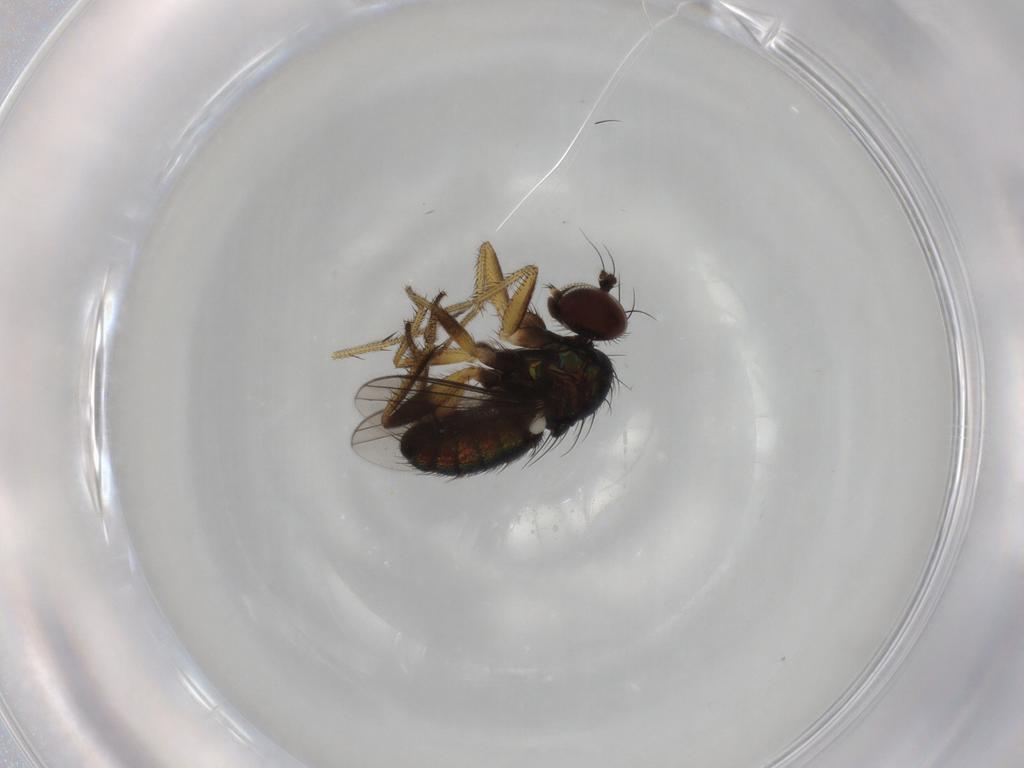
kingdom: Animalia
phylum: Arthropoda
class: Insecta
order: Diptera
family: Dolichopodidae
